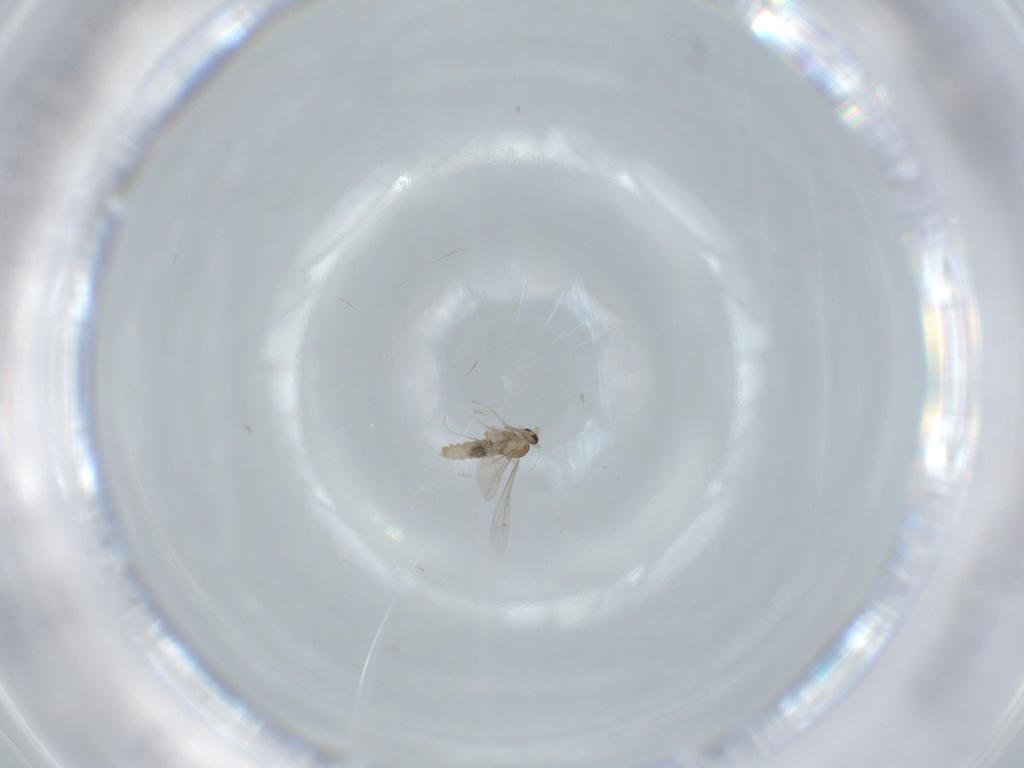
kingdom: Animalia
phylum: Arthropoda
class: Insecta
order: Diptera
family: Cecidomyiidae
